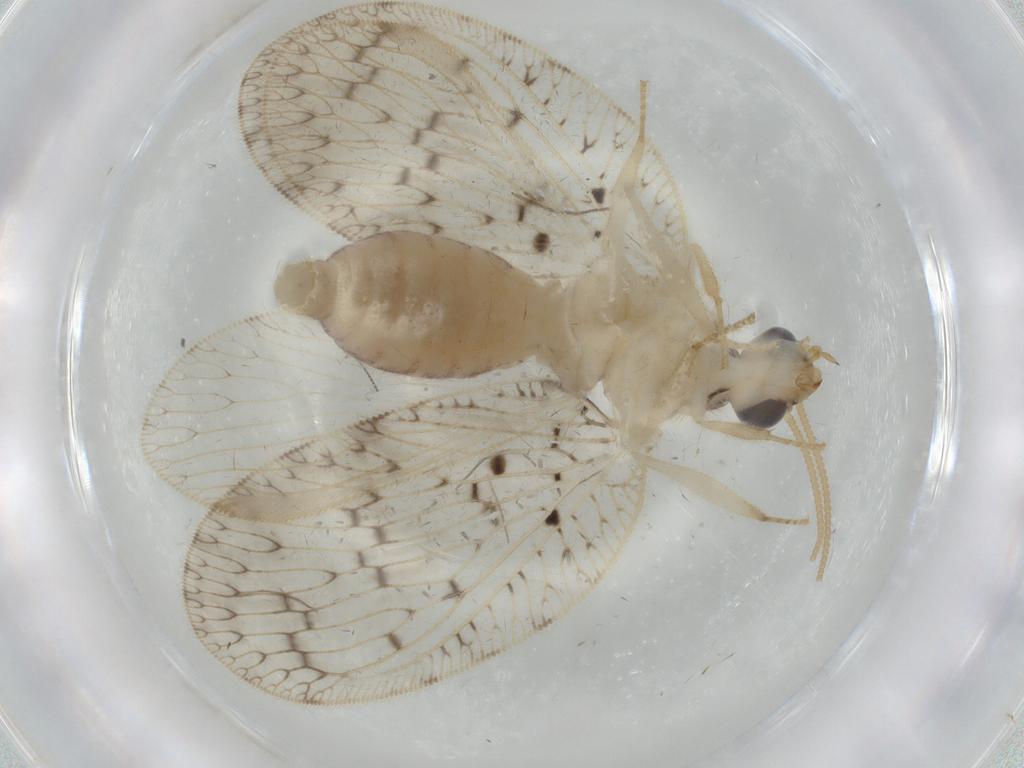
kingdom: Animalia
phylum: Arthropoda
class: Insecta
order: Neuroptera
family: Hemerobiidae
